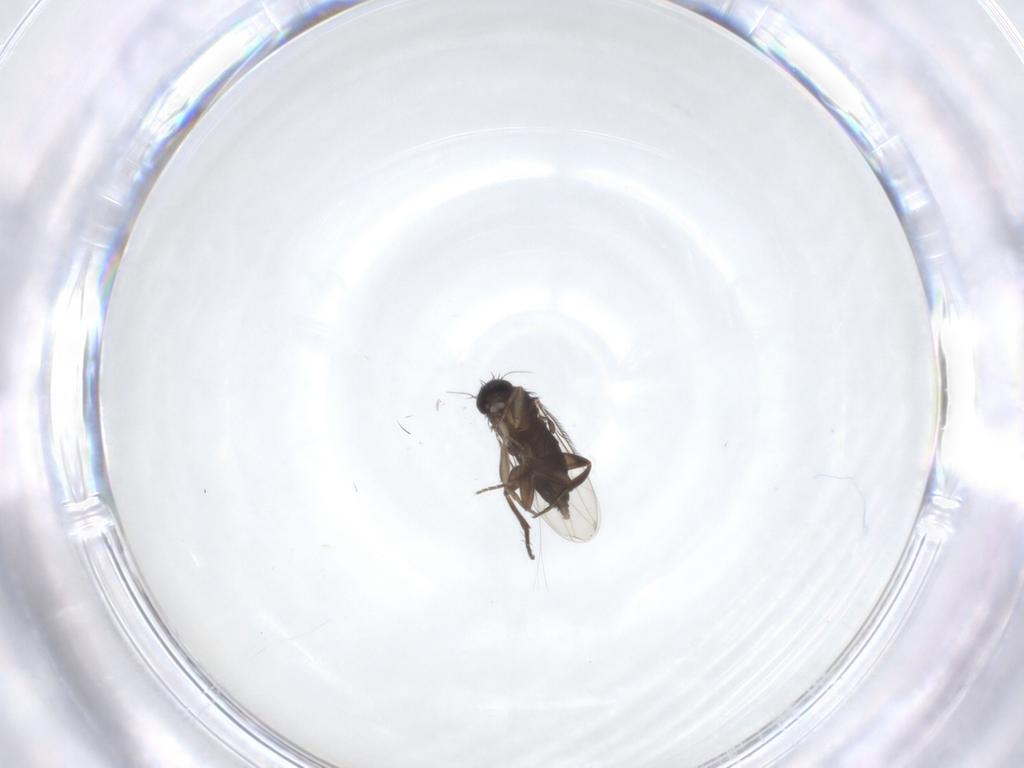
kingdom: Animalia
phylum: Arthropoda
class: Insecta
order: Diptera
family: Phoridae
